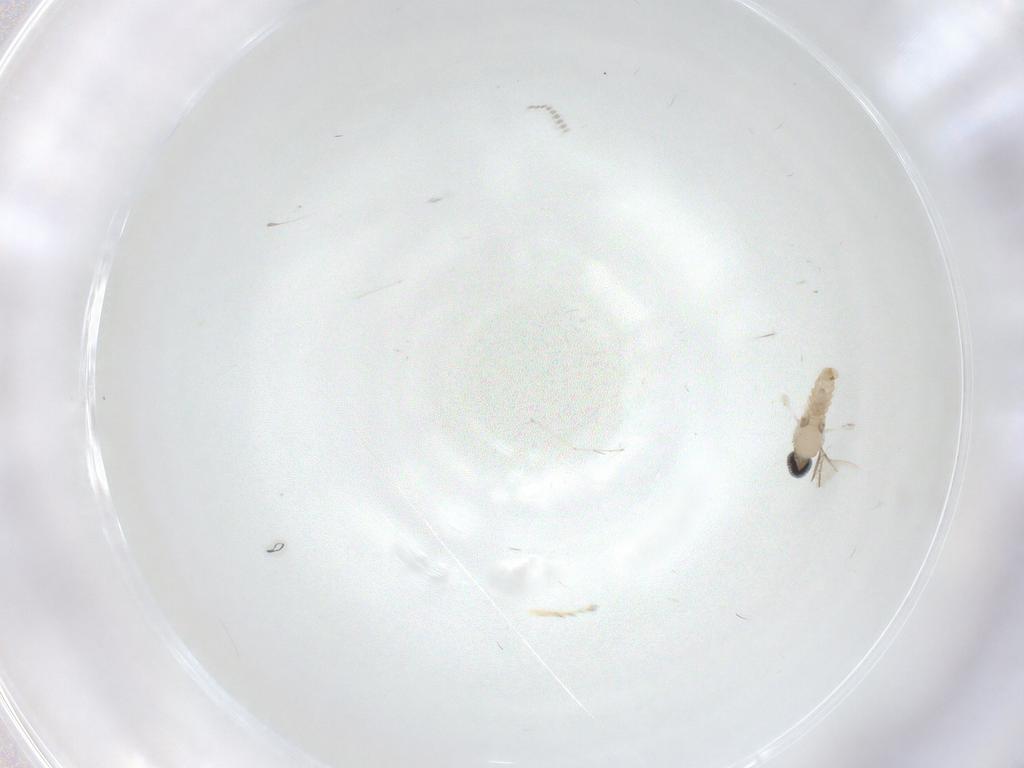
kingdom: Animalia
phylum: Arthropoda
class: Insecta
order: Diptera
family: Cecidomyiidae
